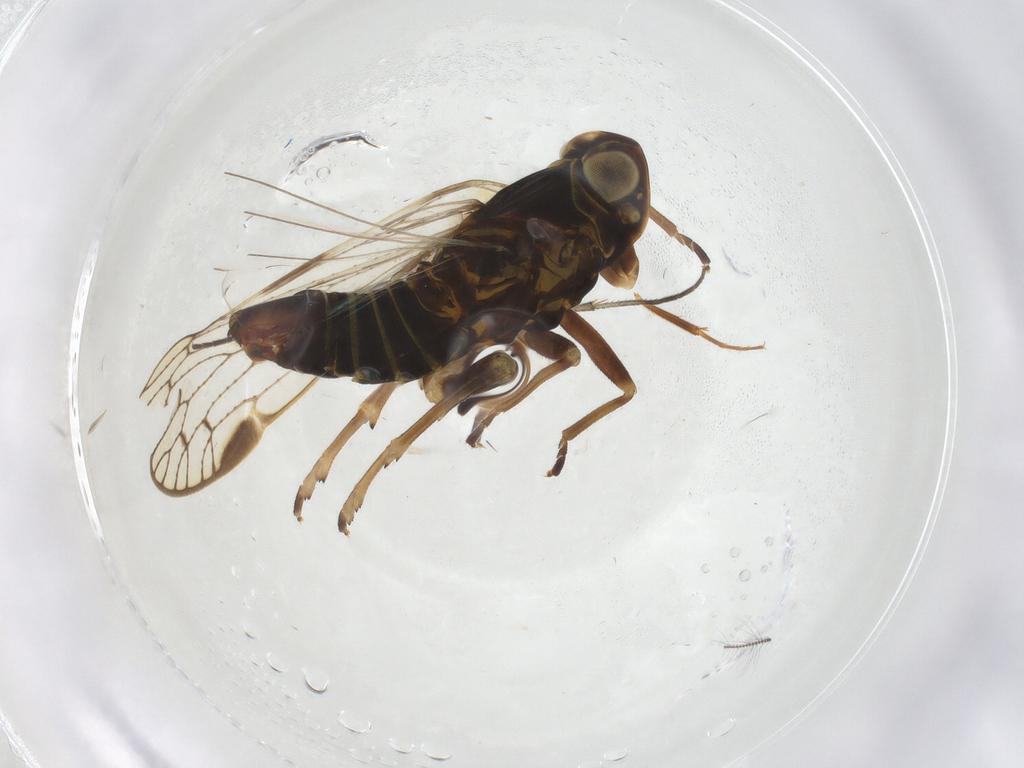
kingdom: Animalia
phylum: Arthropoda
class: Insecta
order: Hemiptera
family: Cixiidae
